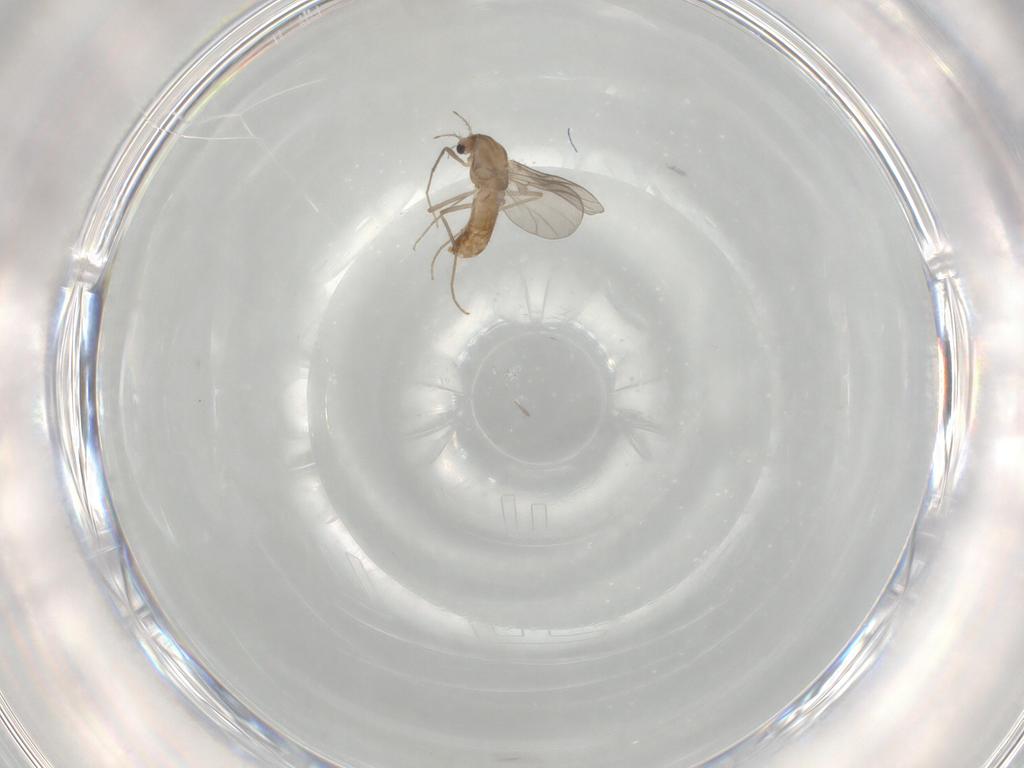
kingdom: Animalia
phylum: Arthropoda
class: Insecta
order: Diptera
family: Chironomidae
